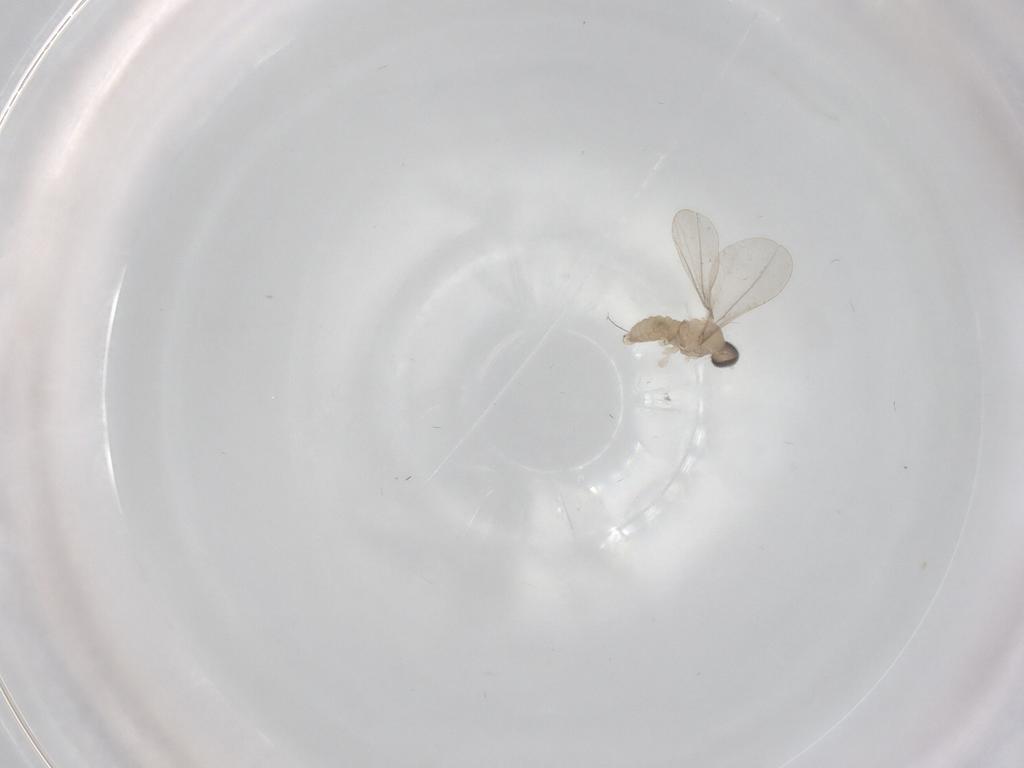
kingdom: Animalia
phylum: Arthropoda
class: Insecta
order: Diptera
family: Cecidomyiidae
